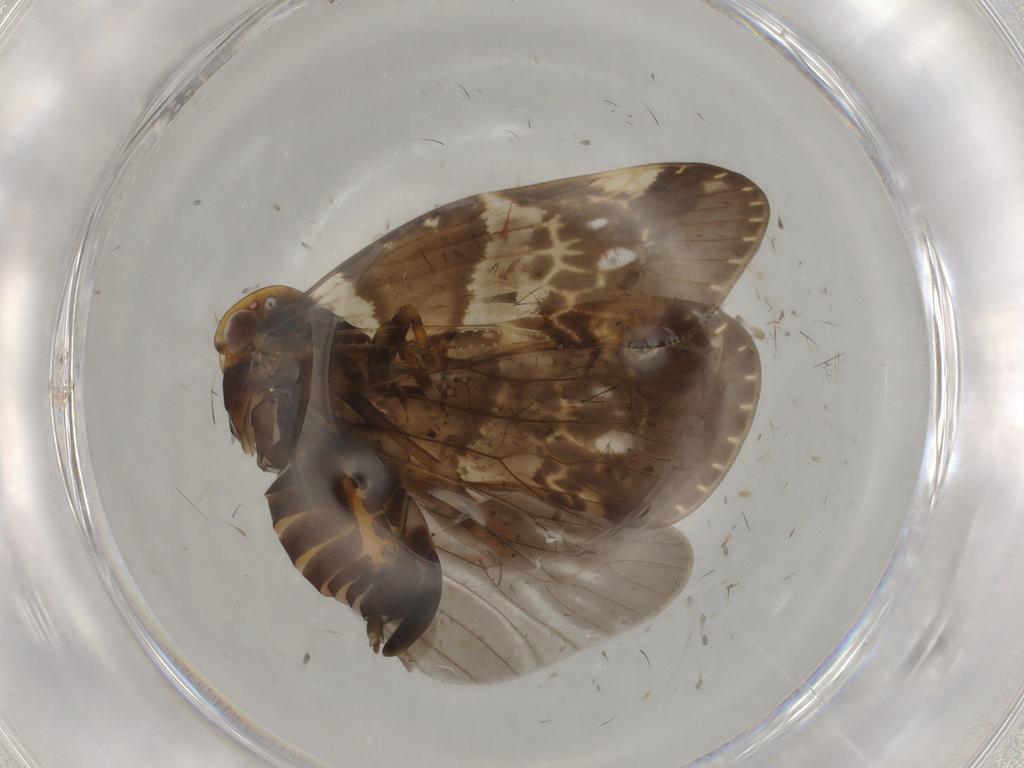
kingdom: Animalia
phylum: Arthropoda
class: Insecta
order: Hemiptera
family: Cixiidae
